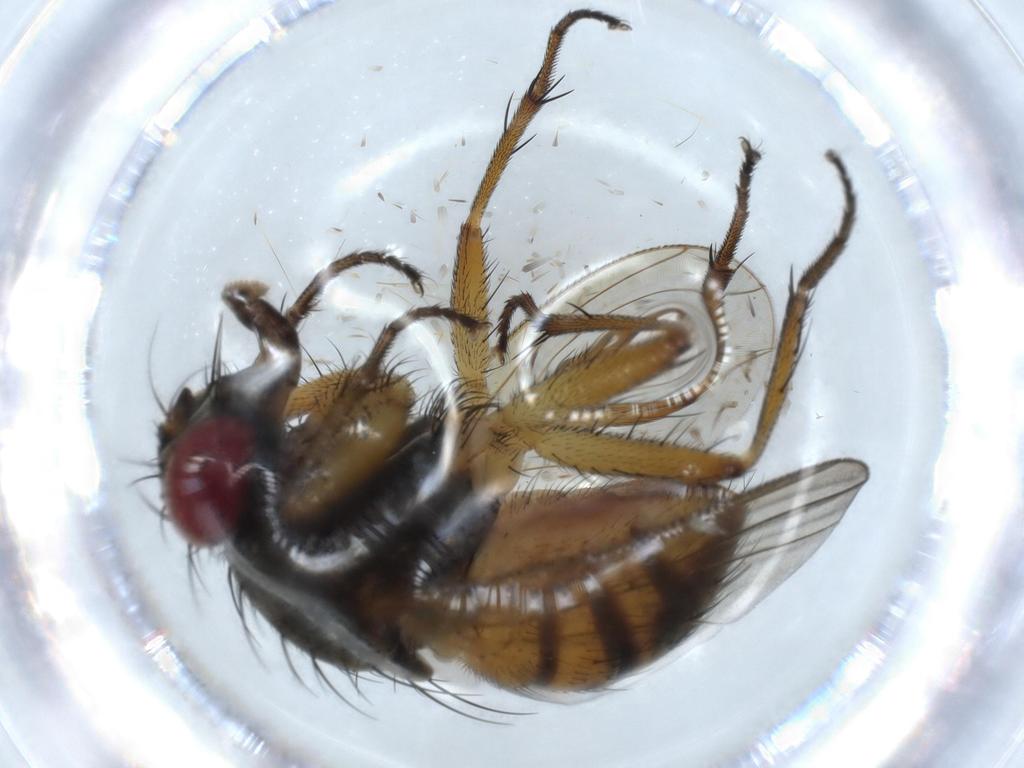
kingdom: Animalia
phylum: Arthropoda
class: Insecta
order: Diptera
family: Muscidae
